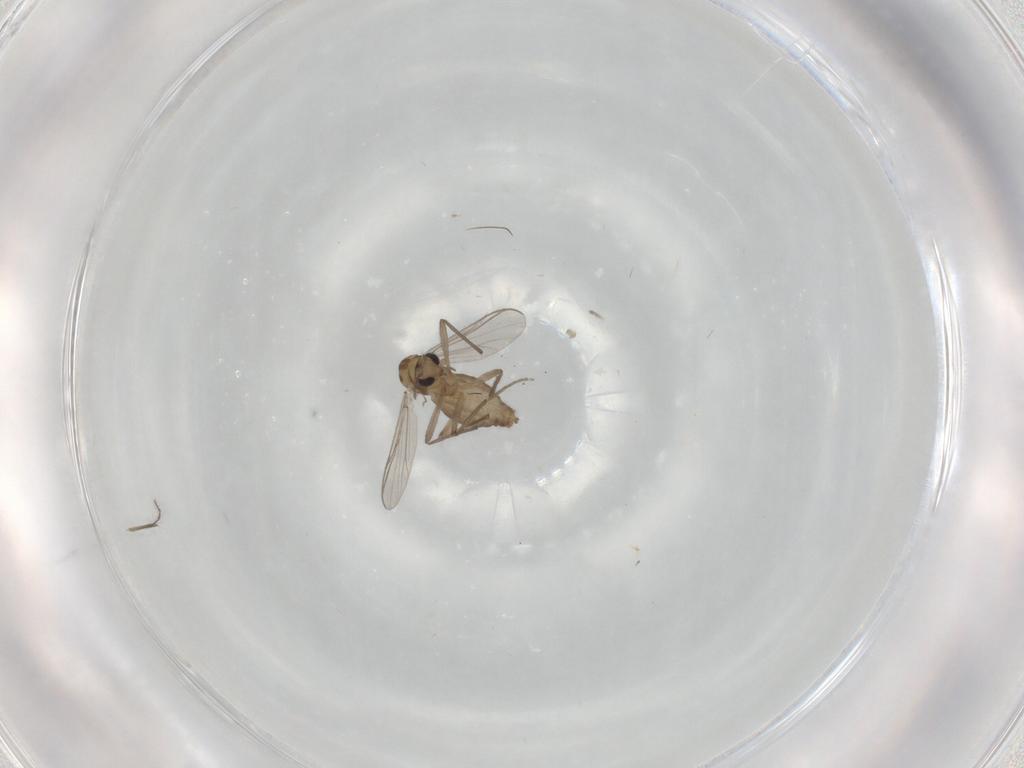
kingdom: Animalia
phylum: Arthropoda
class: Insecta
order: Diptera
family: Chironomidae
